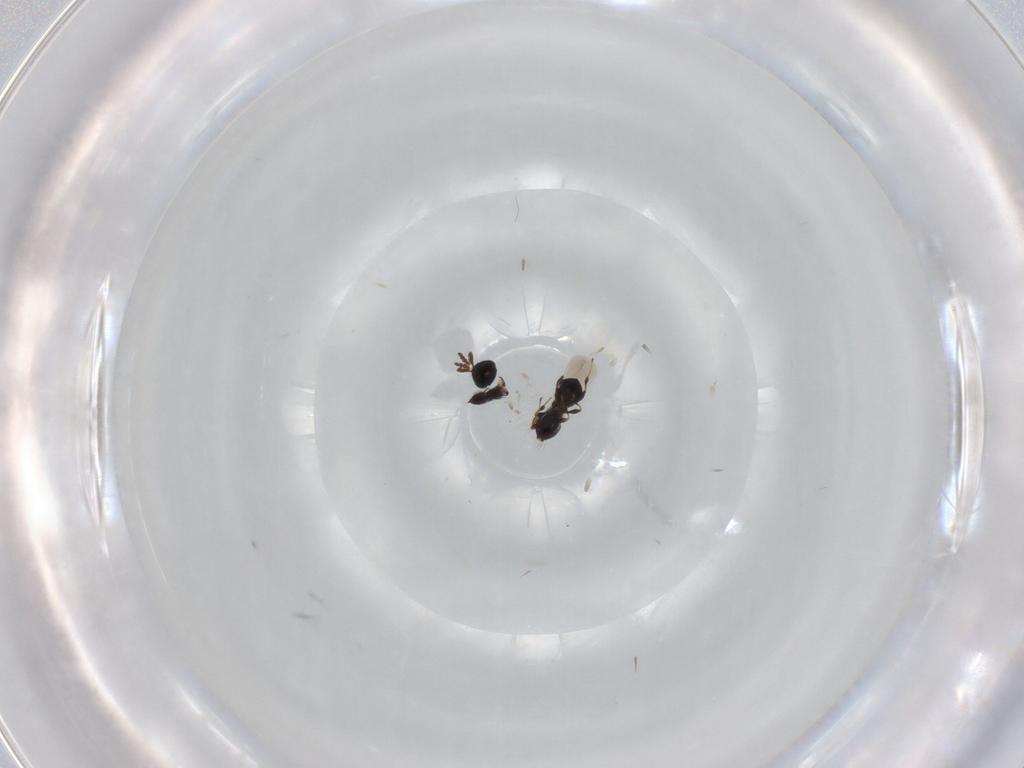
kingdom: Animalia
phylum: Arthropoda
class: Insecta
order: Hymenoptera
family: Platygastridae
